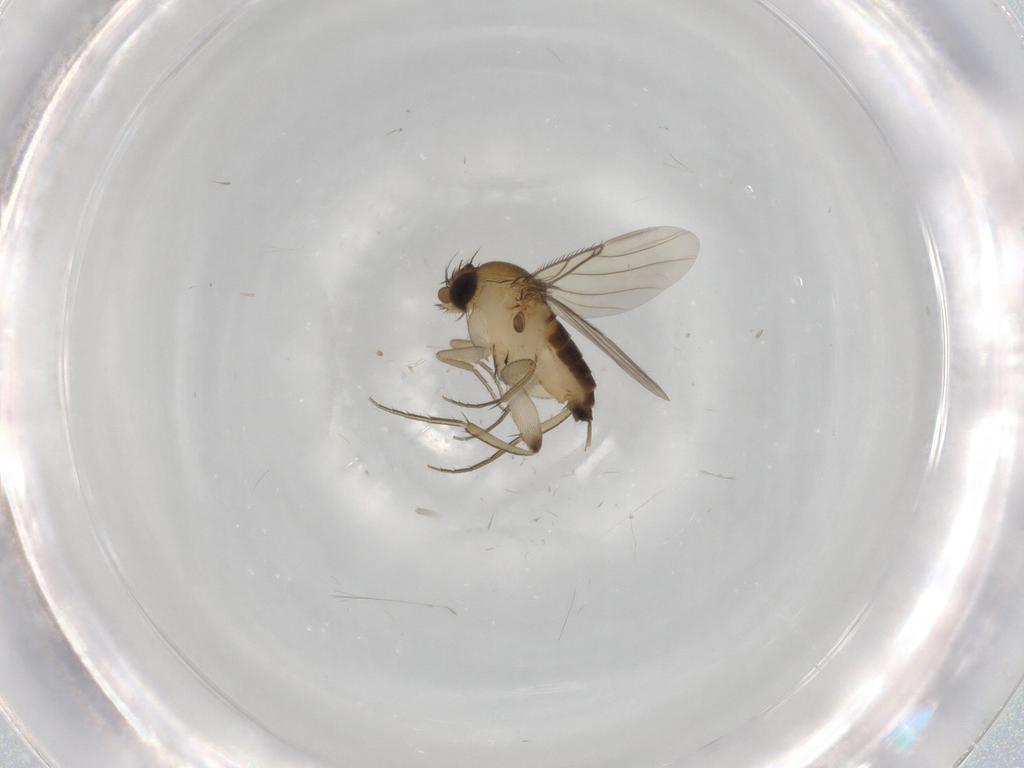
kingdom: Animalia
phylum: Arthropoda
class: Insecta
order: Diptera
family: Phoridae
